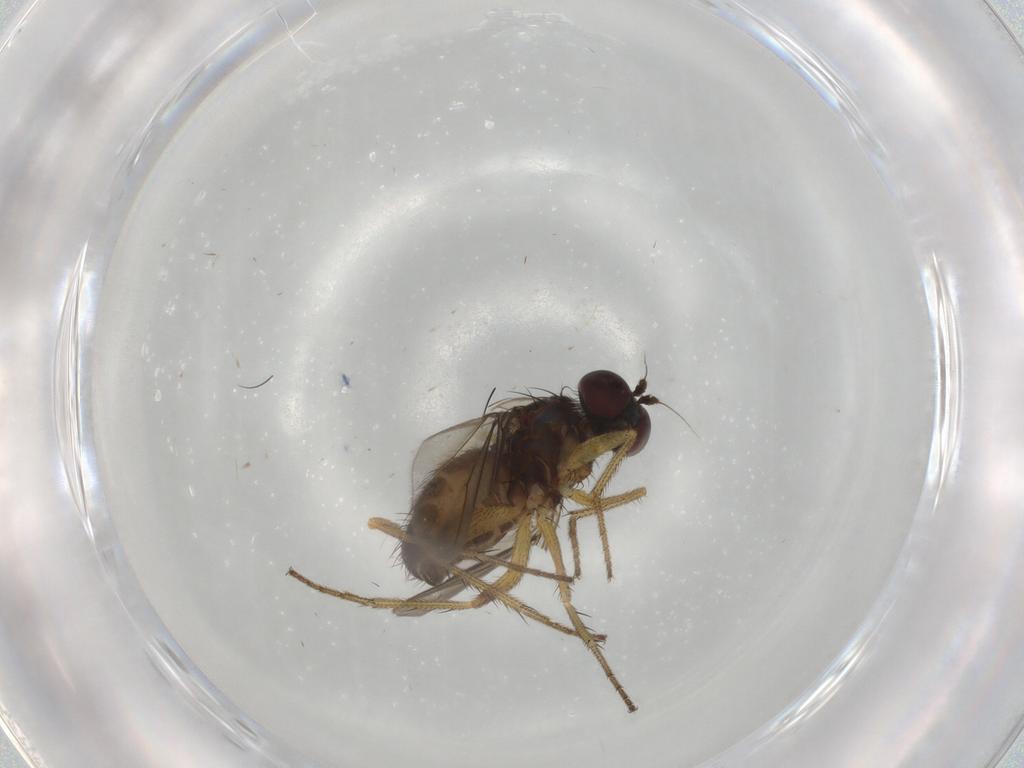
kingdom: Animalia
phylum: Arthropoda
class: Insecta
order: Diptera
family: Dolichopodidae
